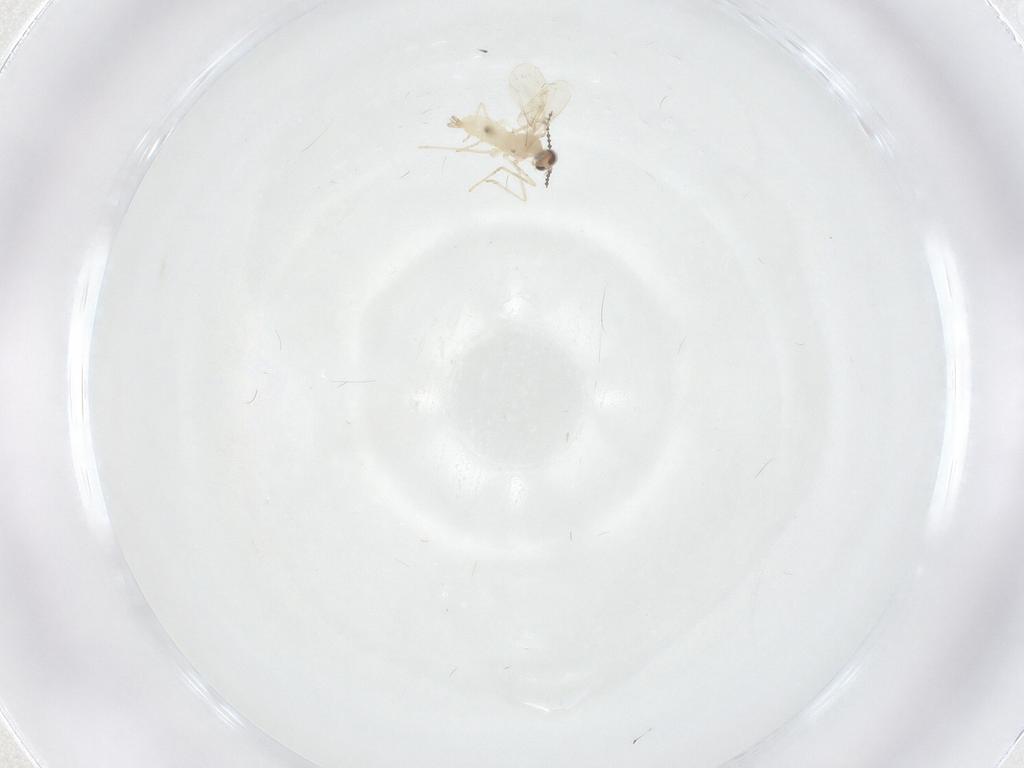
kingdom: Animalia
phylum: Arthropoda
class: Insecta
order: Diptera
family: Cecidomyiidae
